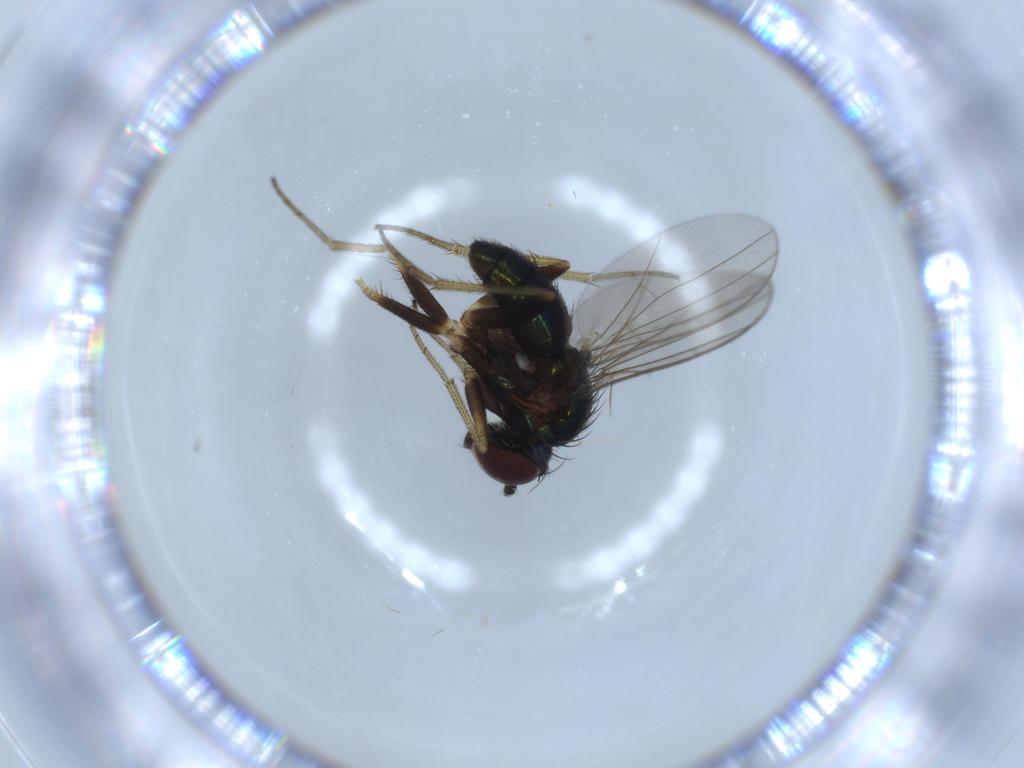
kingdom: Animalia
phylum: Arthropoda
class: Insecta
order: Diptera
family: Dolichopodidae
